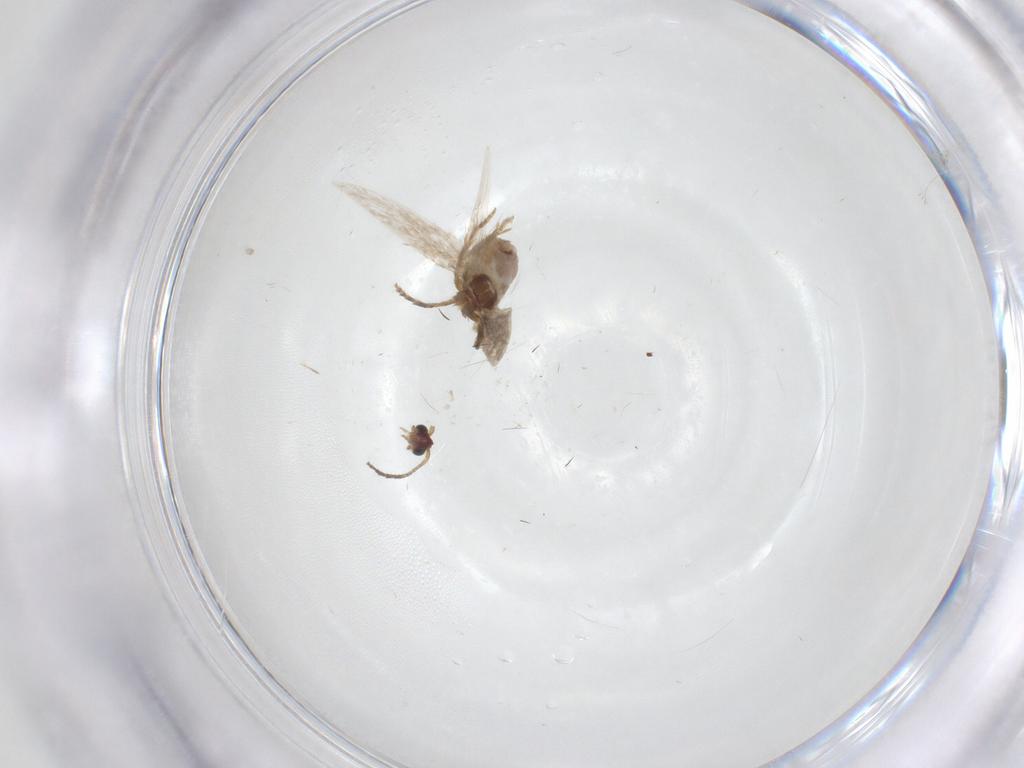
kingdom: Animalia
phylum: Arthropoda
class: Insecta
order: Lepidoptera
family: Nepticulidae
